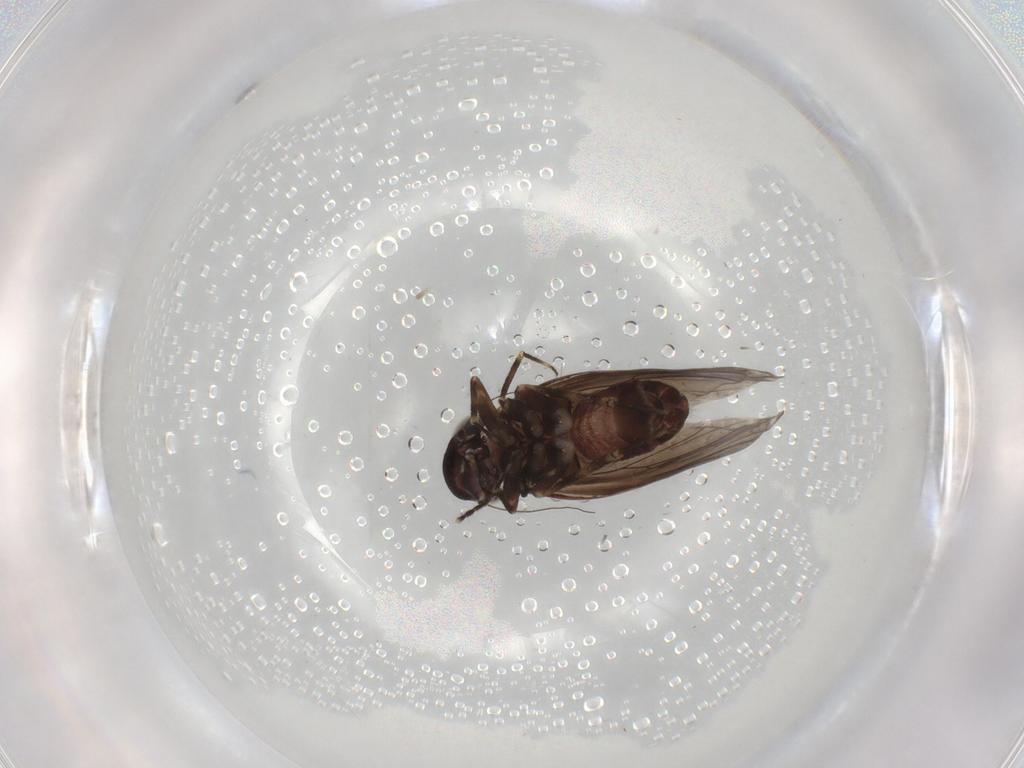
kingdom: Animalia
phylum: Arthropoda
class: Insecta
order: Psocodea
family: Amphientomidae
